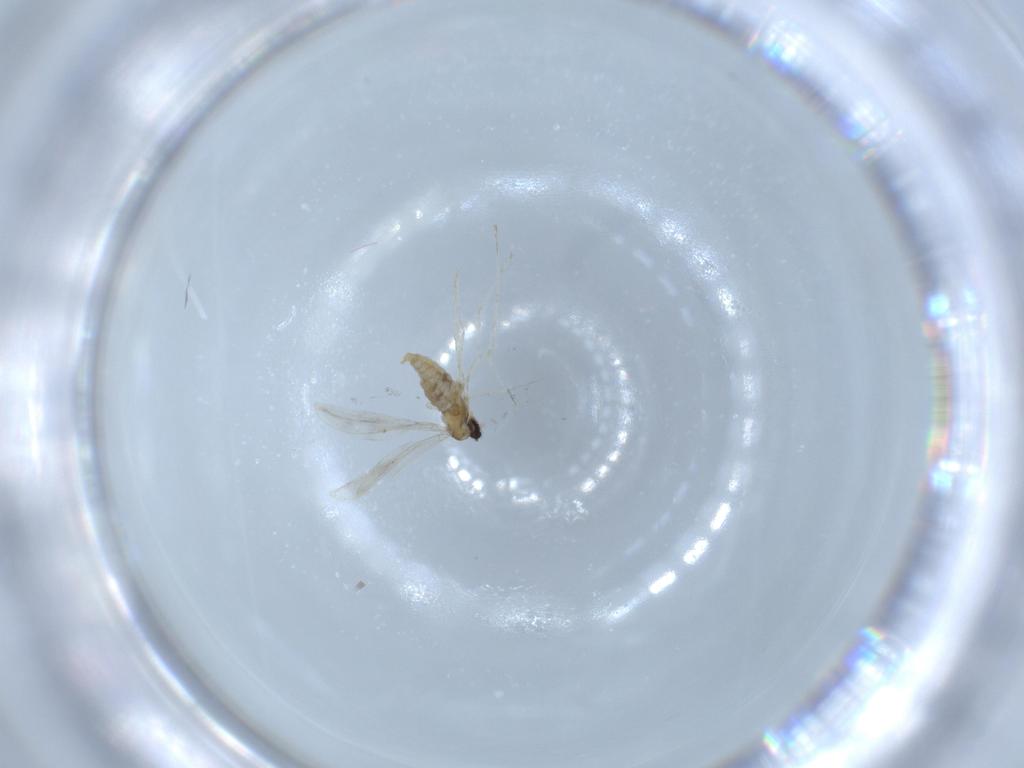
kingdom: Animalia
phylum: Arthropoda
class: Insecta
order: Diptera
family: Cecidomyiidae
